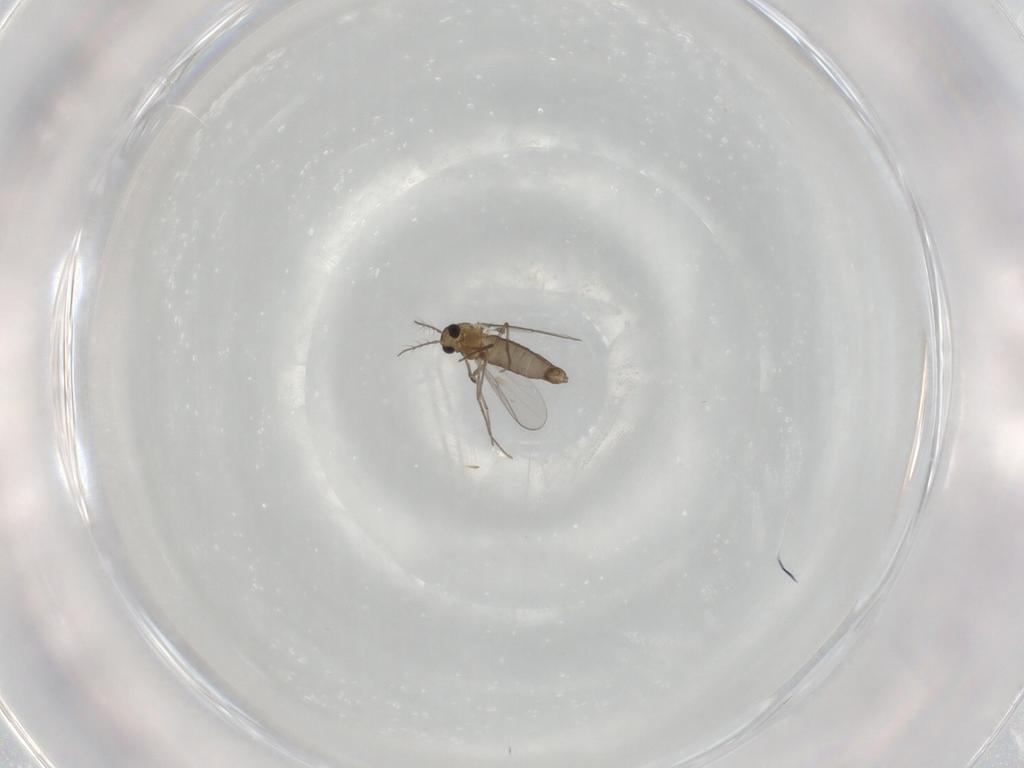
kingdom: Animalia
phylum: Arthropoda
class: Insecta
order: Diptera
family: Chironomidae
